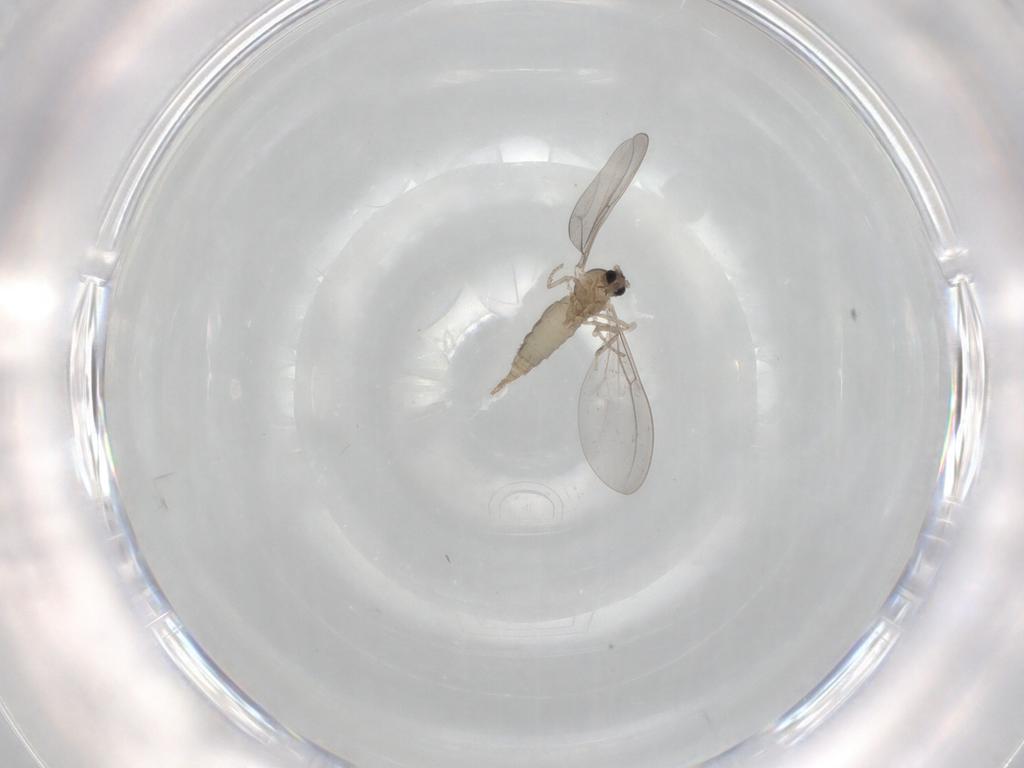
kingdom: Animalia
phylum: Arthropoda
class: Insecta
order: Diptera
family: Cecidomyiidae
